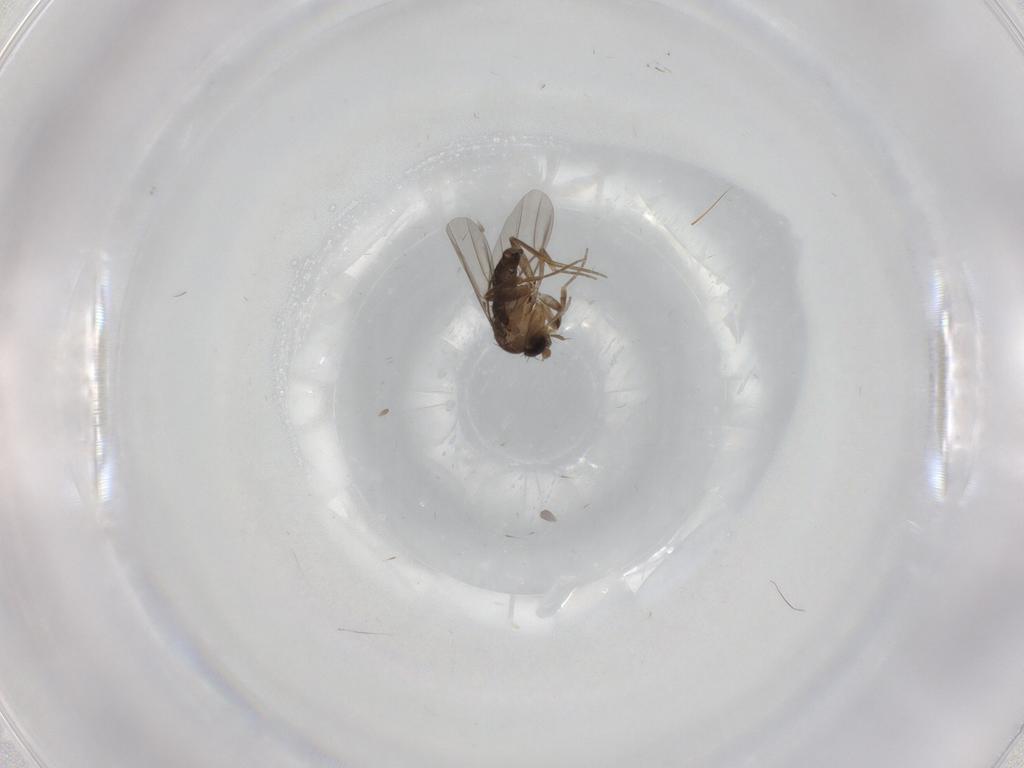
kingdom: Animalia
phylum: Arthropoda
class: Insecta
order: Diptera
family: Phoridae
